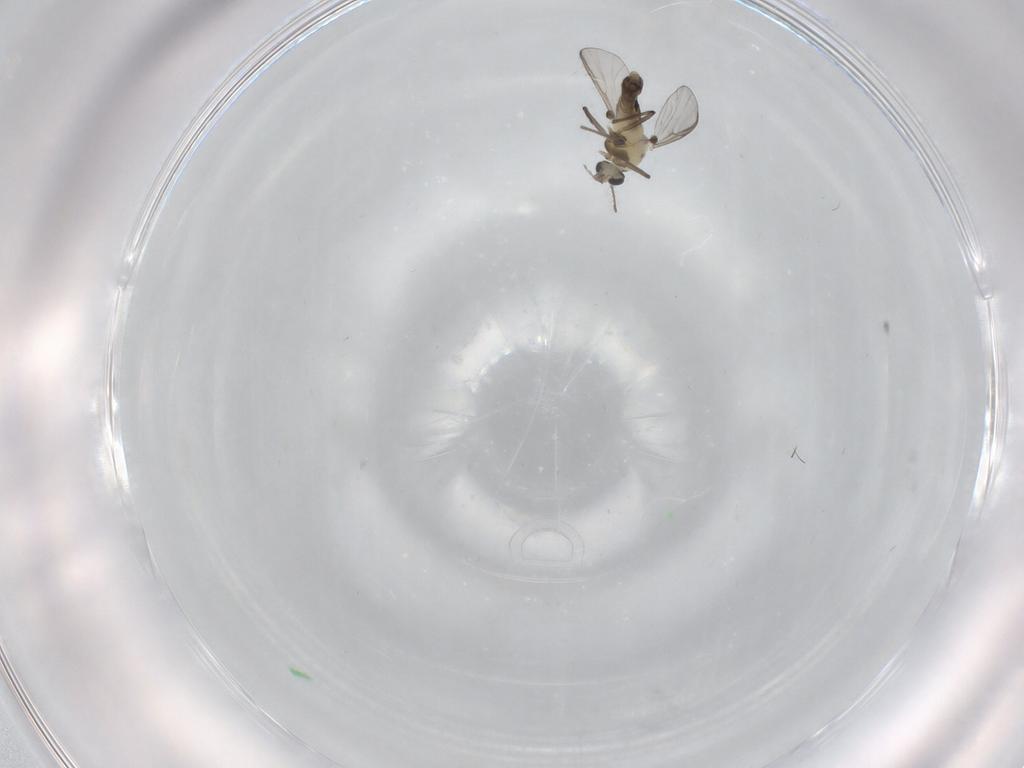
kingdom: Animalia
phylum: Arthropoda
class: Insecta
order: Diptera
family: Chironomidae
